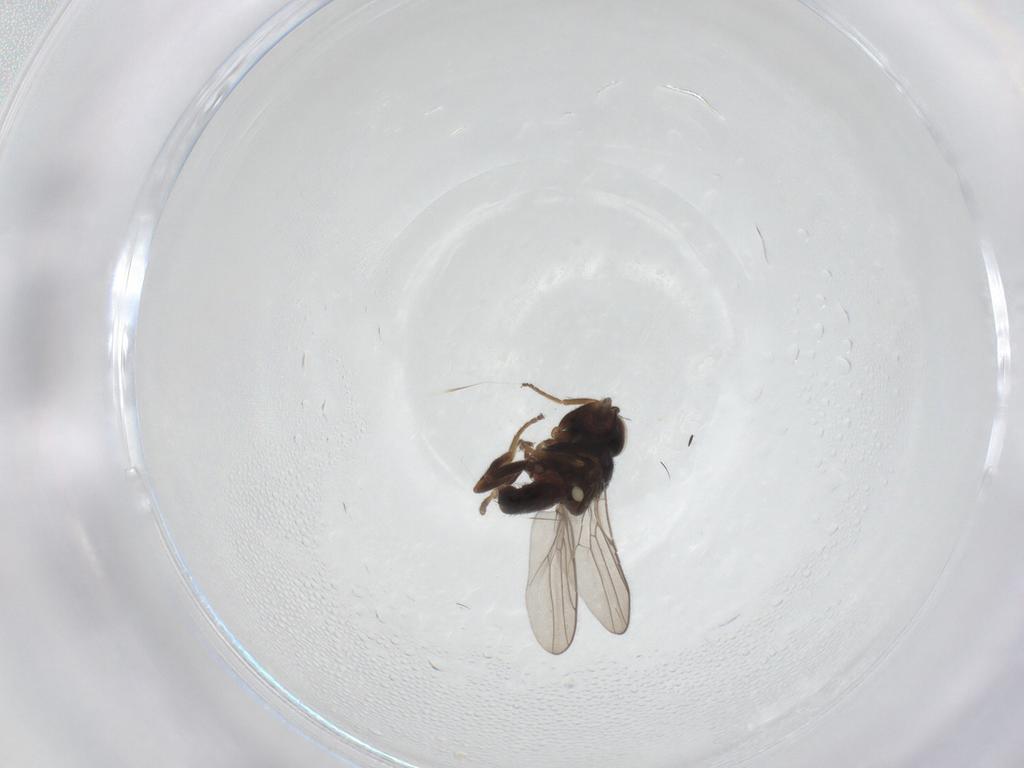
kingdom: Animalia
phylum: Arthropoda
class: Insecta
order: Diptera
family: Chloropidae
